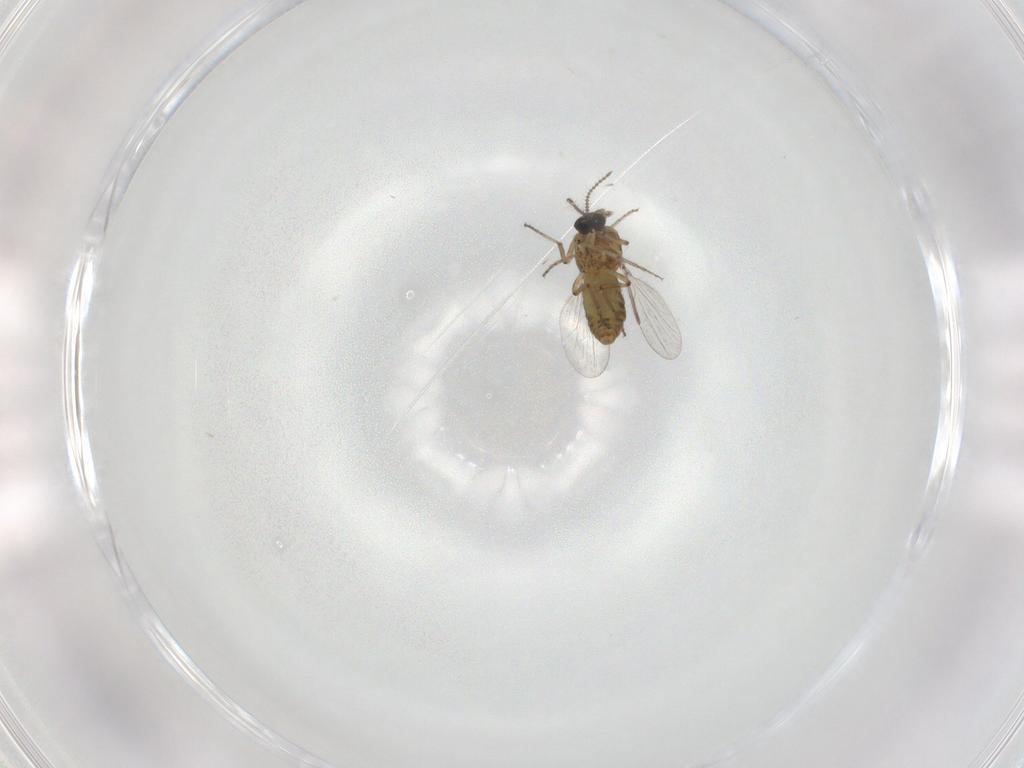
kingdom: Animalia
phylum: Arthropoda
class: Insecta
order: Diptera
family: Ceratopogonidae
